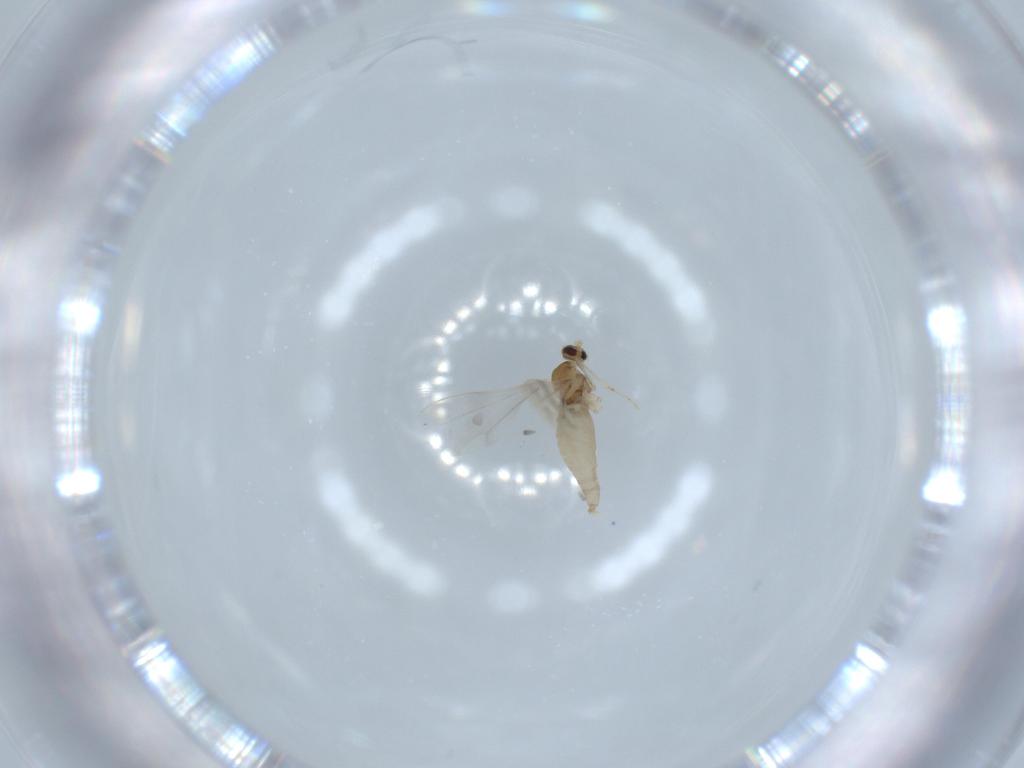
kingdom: Animalia
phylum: Arthropoda
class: Insecta
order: Diptera
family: Cecidomyiidae
